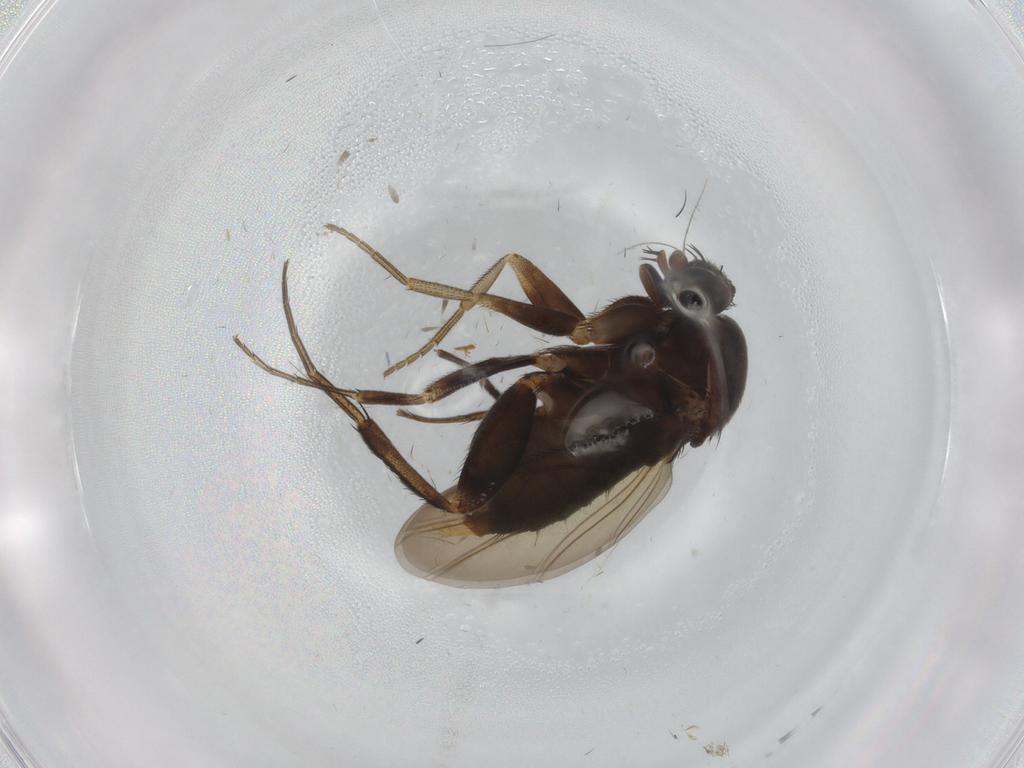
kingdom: Animalia
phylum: Arthropoda
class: Insecta
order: Diptera
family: Phoridae
